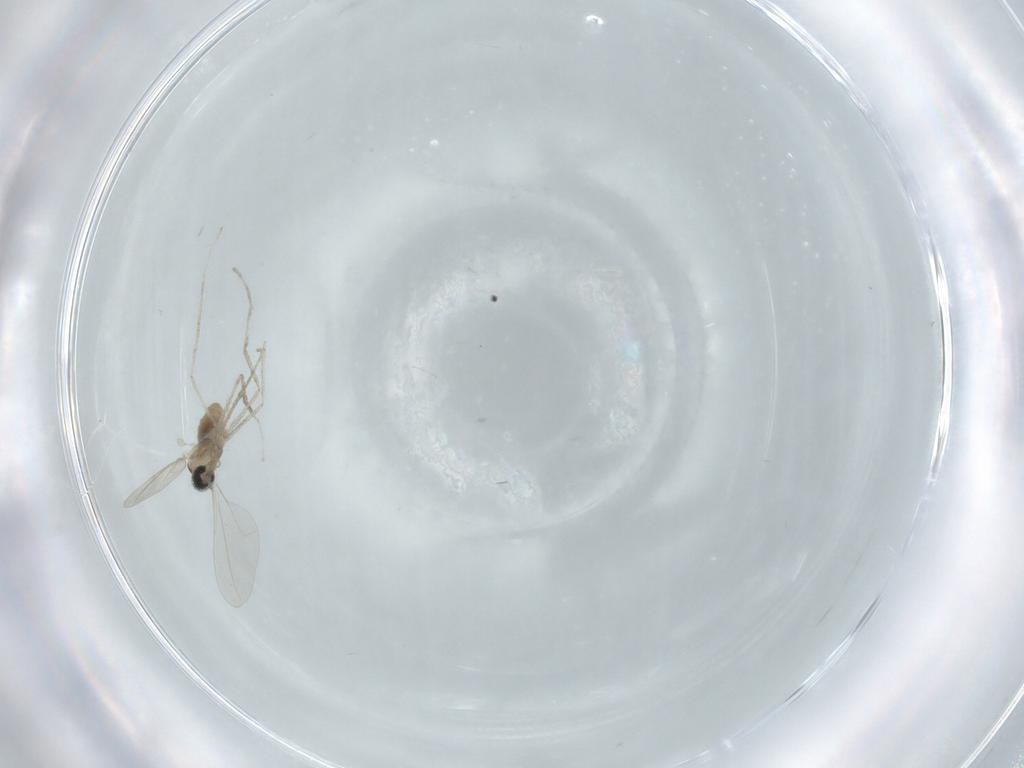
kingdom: Animalia
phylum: Arthropoda
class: Insecta
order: Diptera
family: Cecidomyiidae
